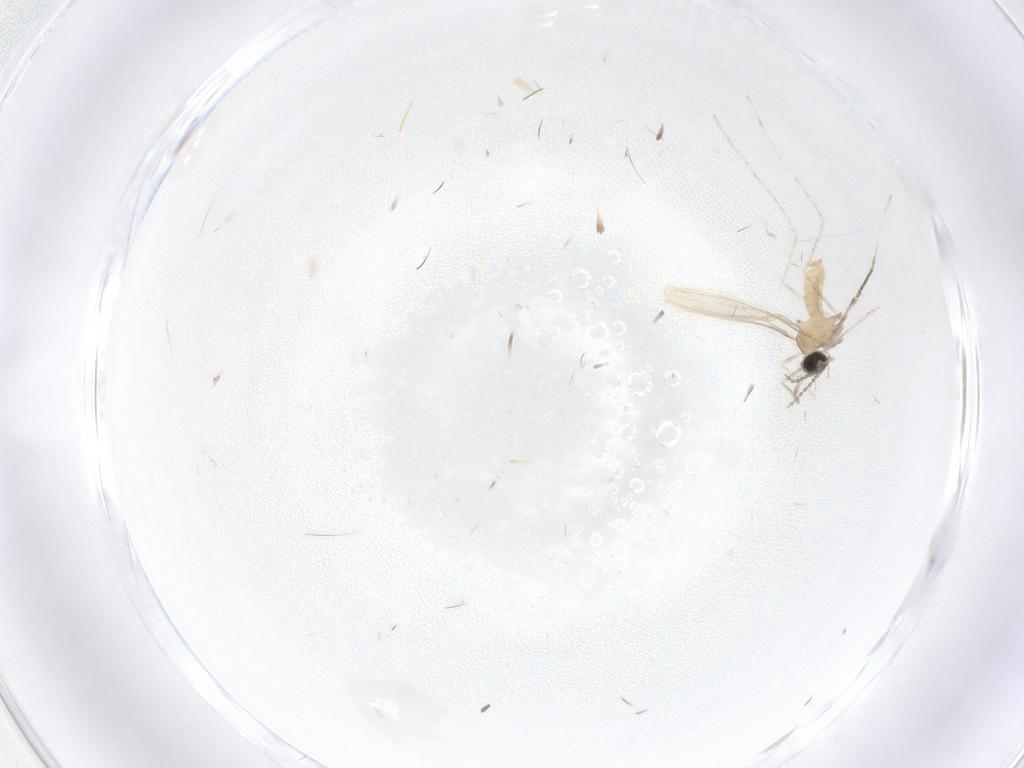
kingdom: Animalia
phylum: Arthropoda
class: Insecta
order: Diptera
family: Cecidomyiidae
